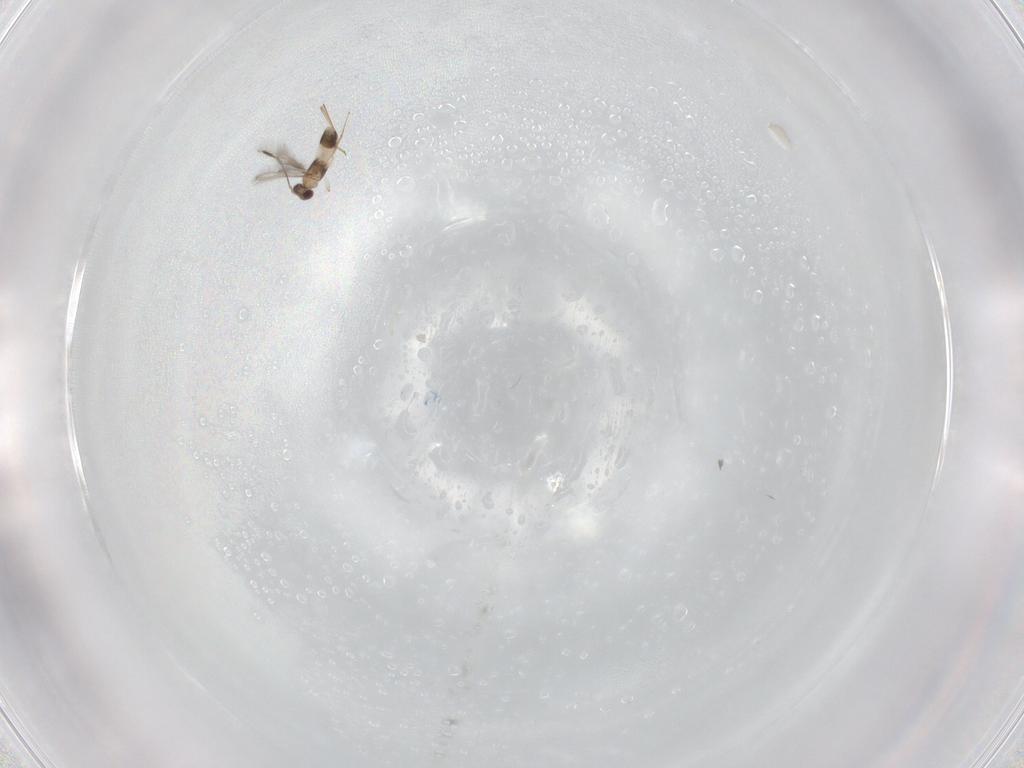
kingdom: Animalia
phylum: Arthropoda
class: Insecta
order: Hymenoptera
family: Mymaridae
